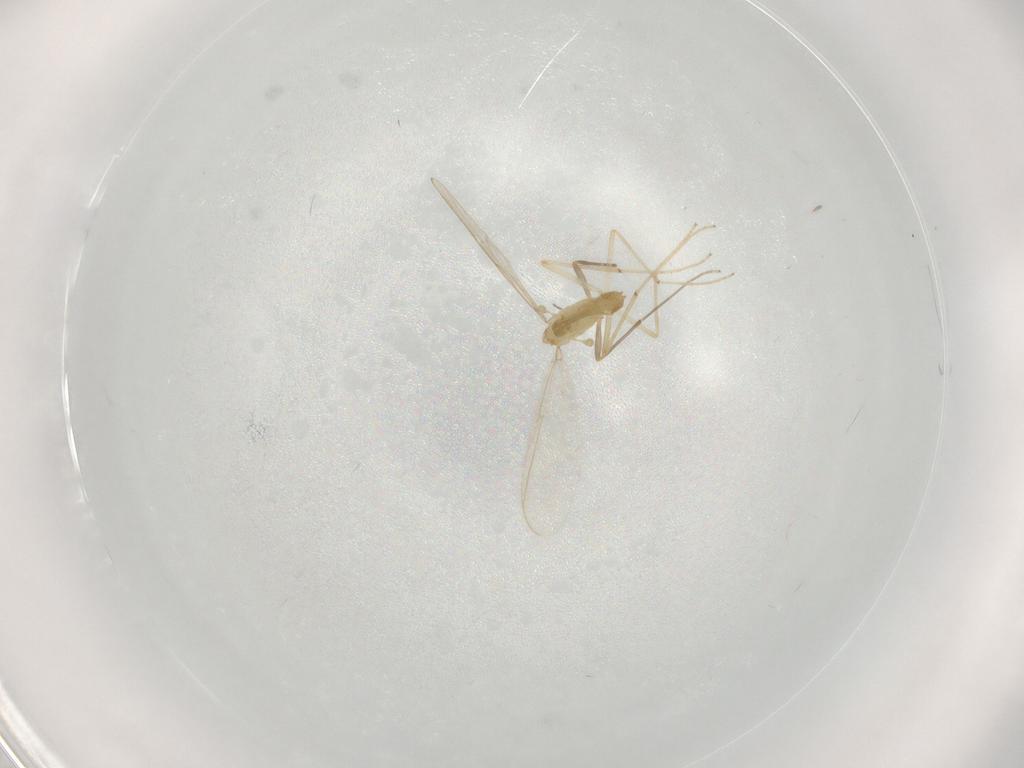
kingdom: Animalia
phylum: Arthropoda
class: Insecta
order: Diptera
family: Chironomidae
